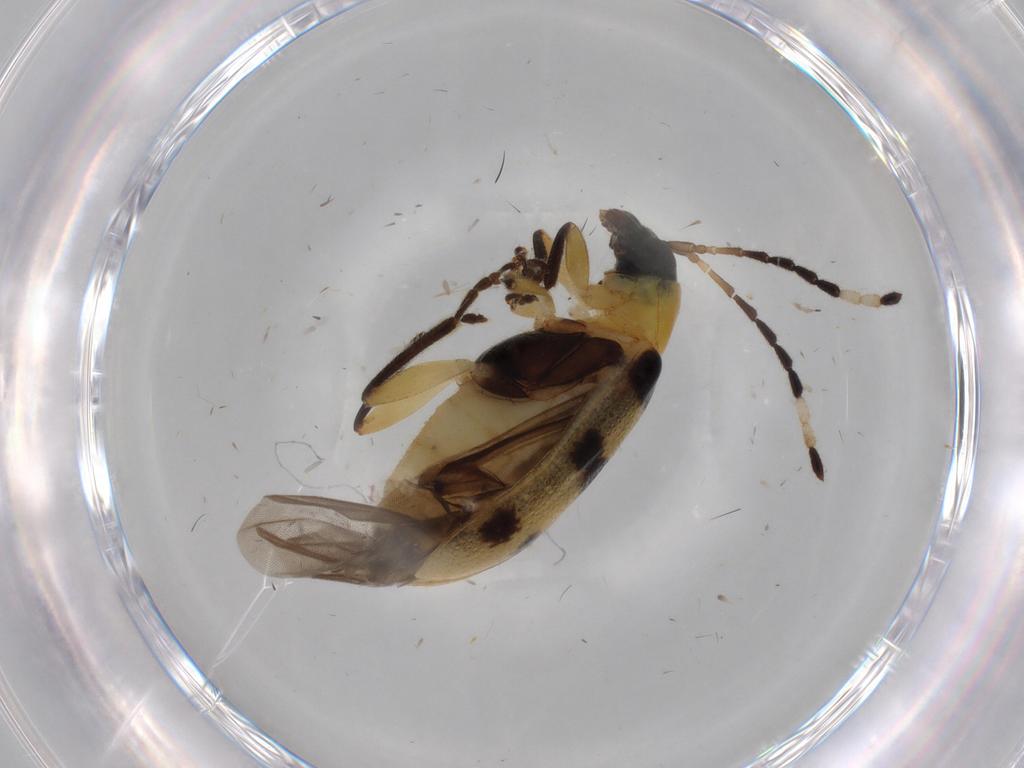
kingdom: Animalia
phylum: Arthropoda
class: Insecta
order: Coleoptera
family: Chrysomelidae
